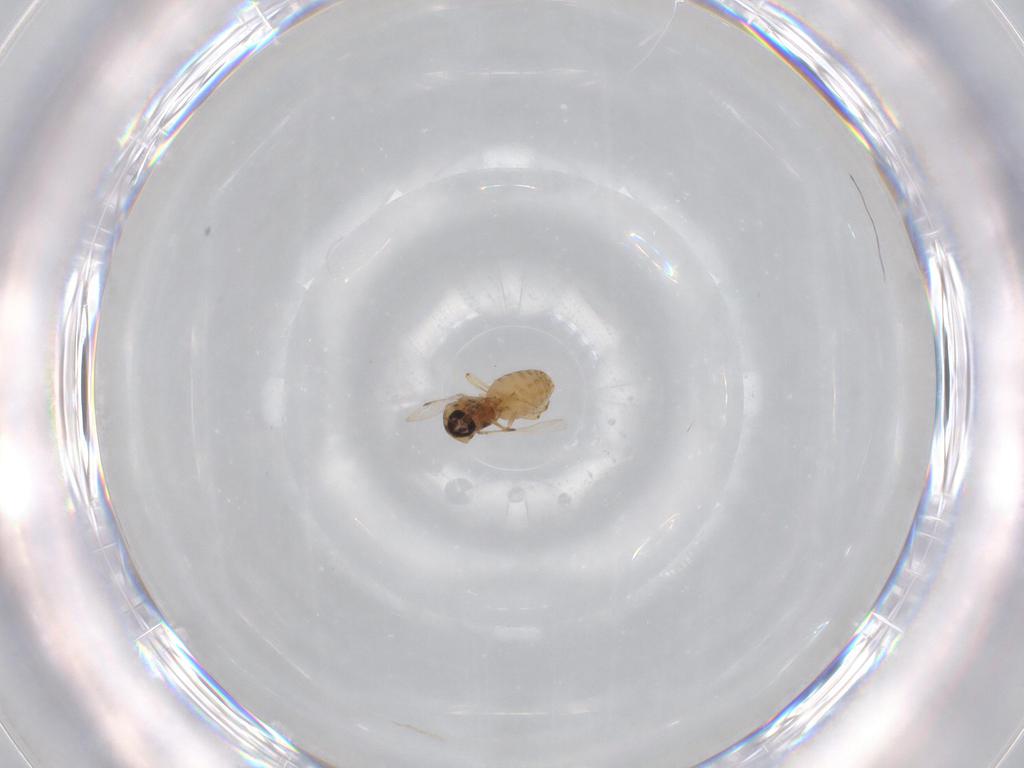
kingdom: Animalia
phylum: Arthropoda
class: Insecta
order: Diptera
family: Ceratopogonidae
